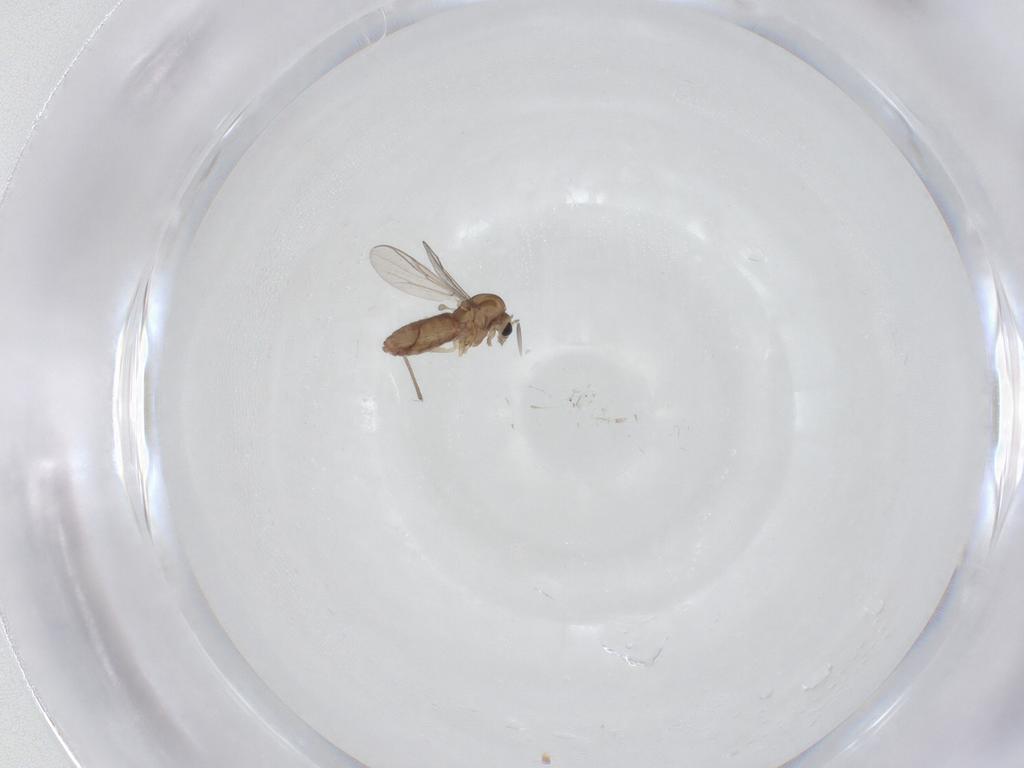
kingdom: Animalia
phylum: Arthropoda
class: Insecta
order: Diptera
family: Chironomidae
